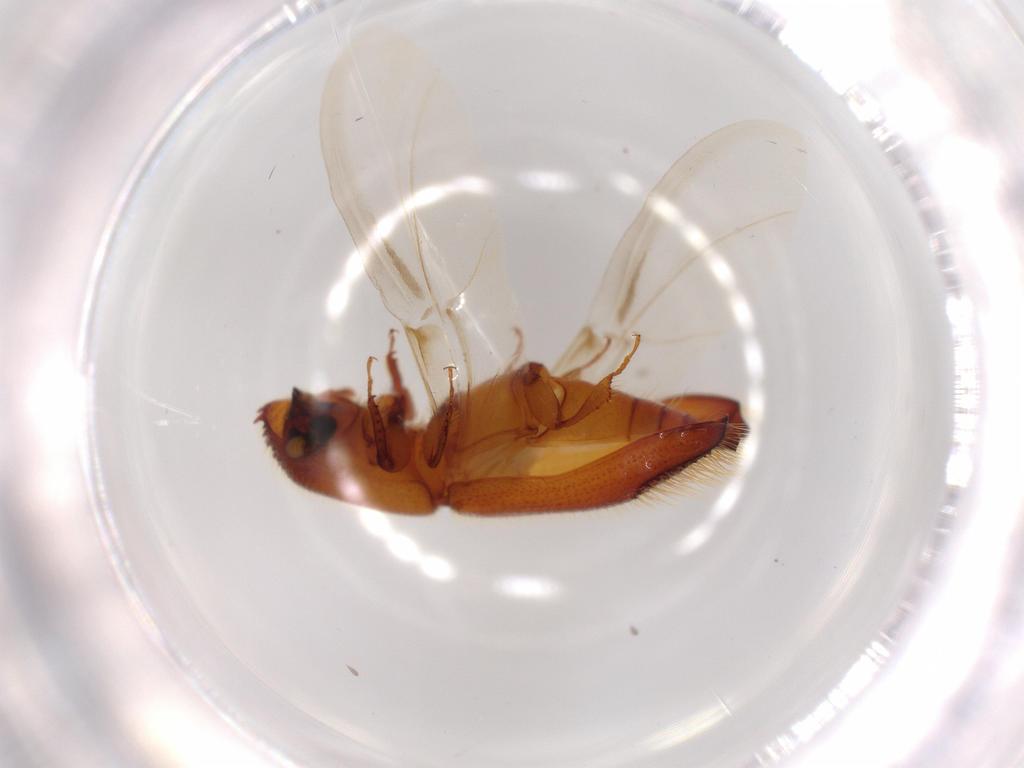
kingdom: Animalia
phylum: Arthropoda
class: Insecta
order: Coleoptera
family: Curculionidae
